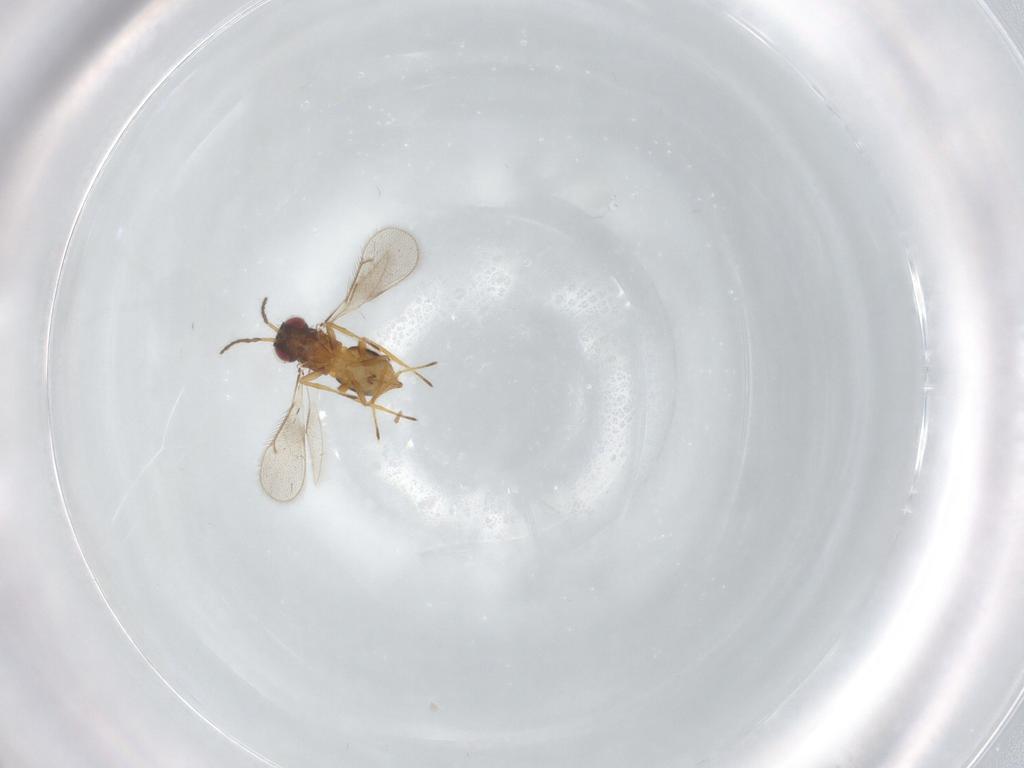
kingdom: Animalia
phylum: Arthropoda
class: Insecta
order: Hymenoptera
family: Eulophidae
